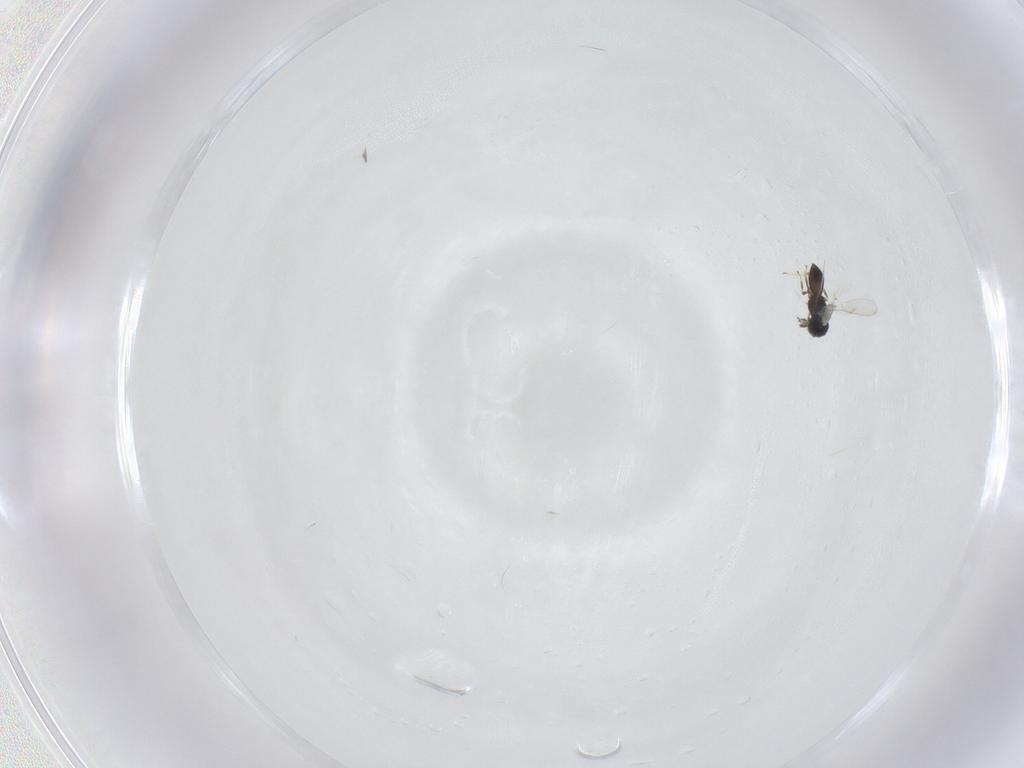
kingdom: Animalia
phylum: Arthropoda
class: Insecta
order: Hymenoptera
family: Scelionidae
